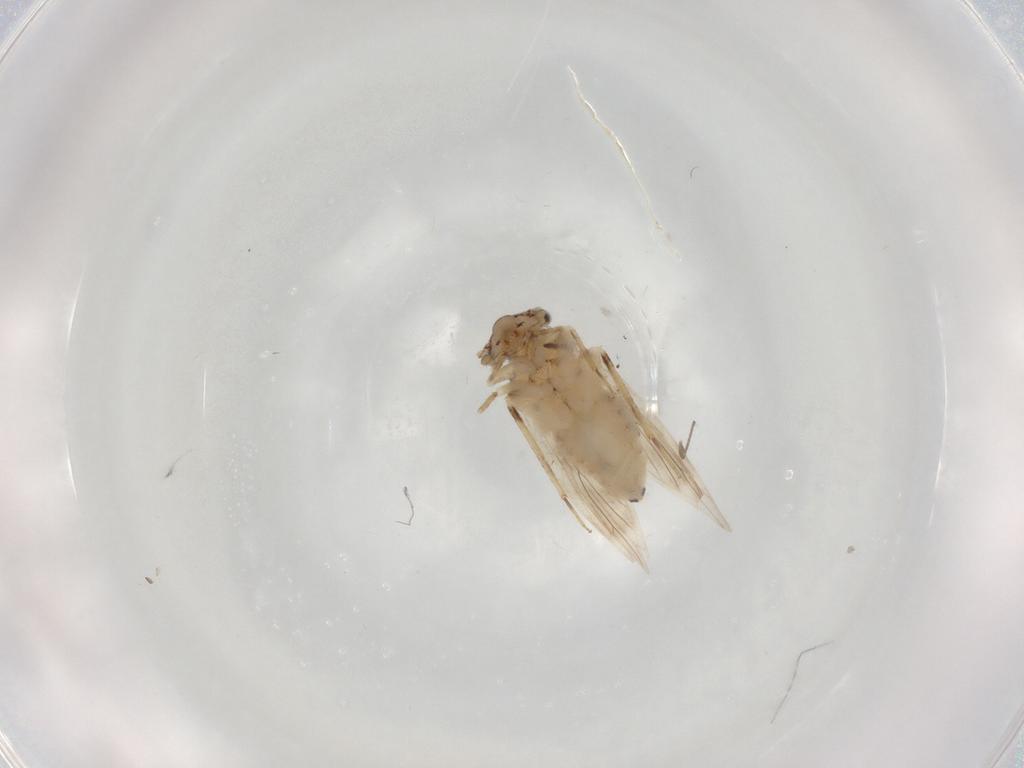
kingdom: Animalia
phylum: Arthropoda
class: Insecta
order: Psocodea
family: Lepidopsocidae
